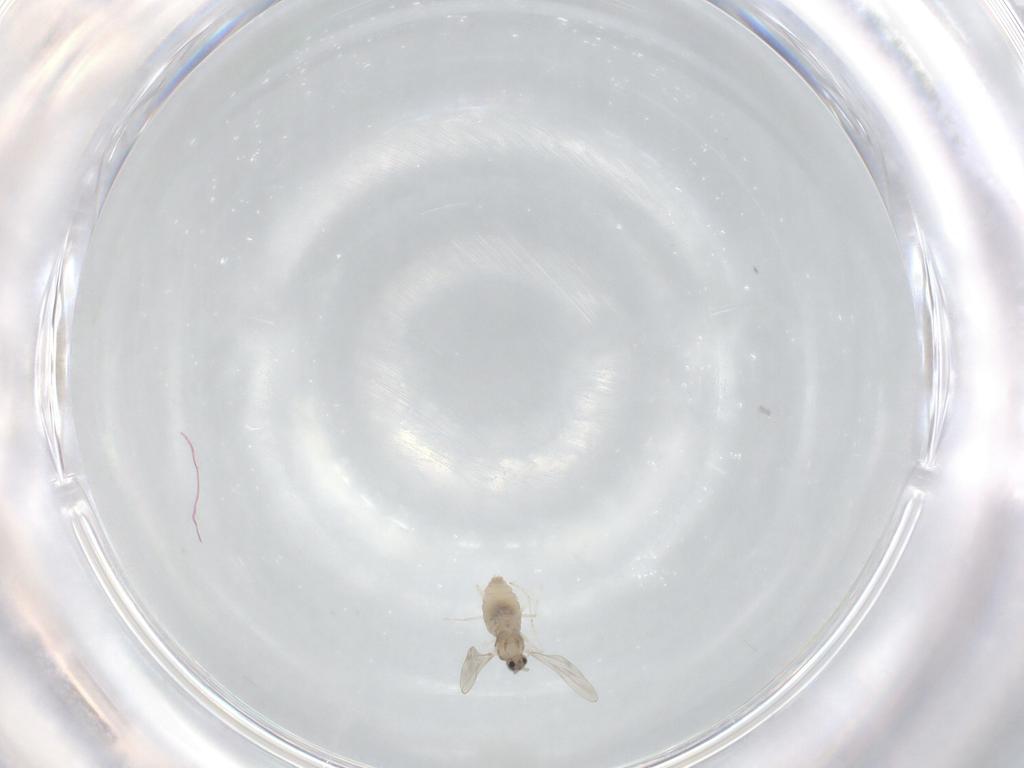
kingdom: Animalia
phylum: Arthropoda
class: Insecta
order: Diptera
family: Cecidomyiidae
